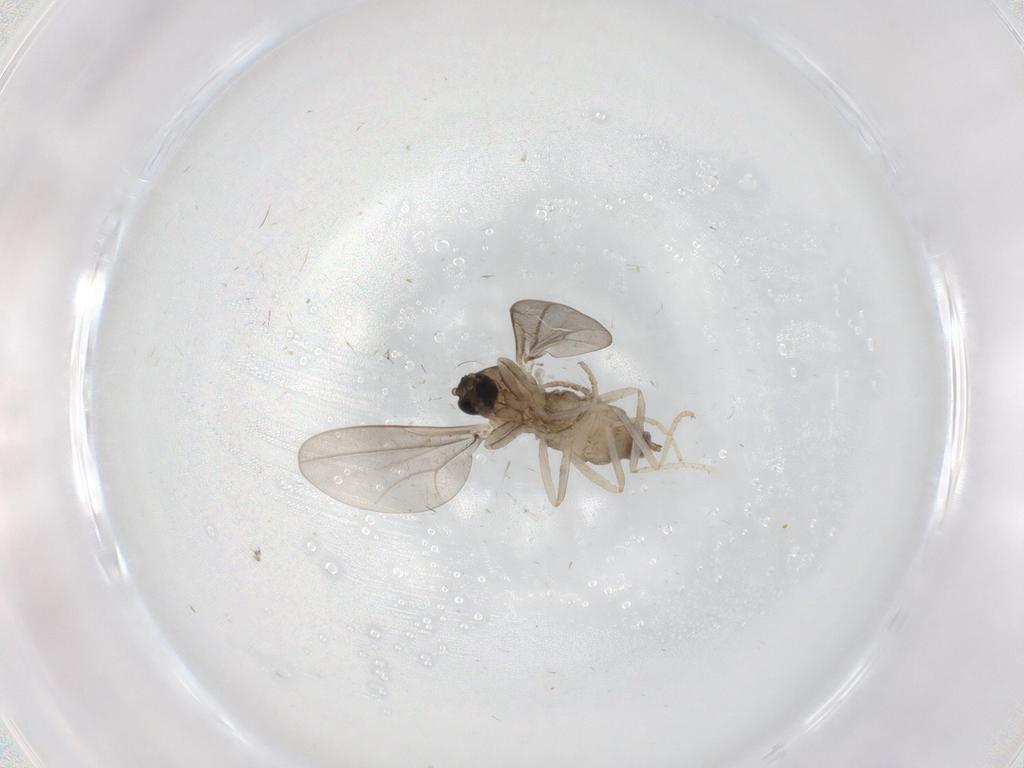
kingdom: Animalia
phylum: Arthropoda
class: Insecta
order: Diptera
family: Cecidomyiidae
